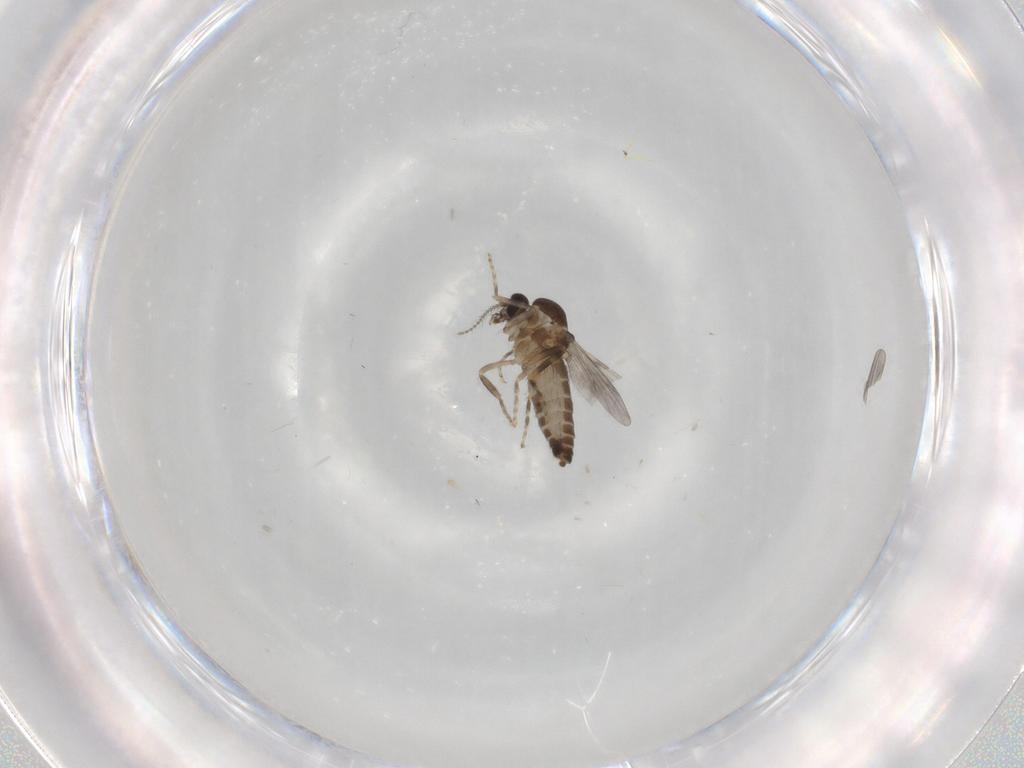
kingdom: Animalia
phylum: Arthropoda
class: Insecta
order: Diptera
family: Ceratopogonidae
